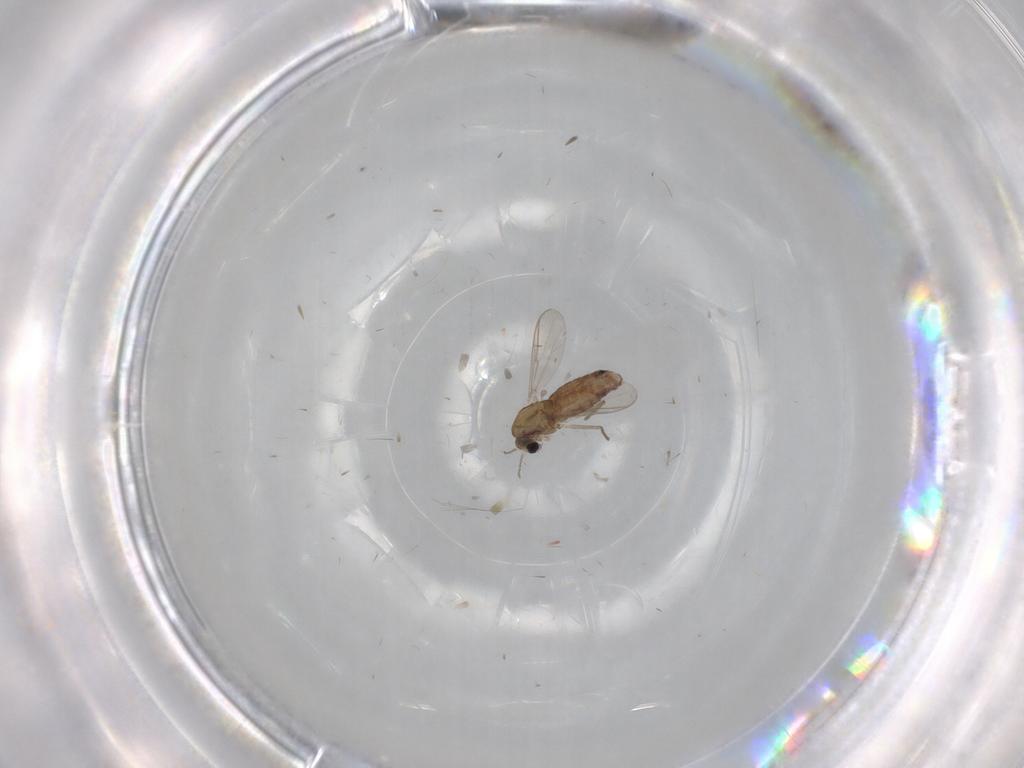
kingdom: Animalia
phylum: Arthropoda
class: Insecta
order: Diptera
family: Chironomidae
